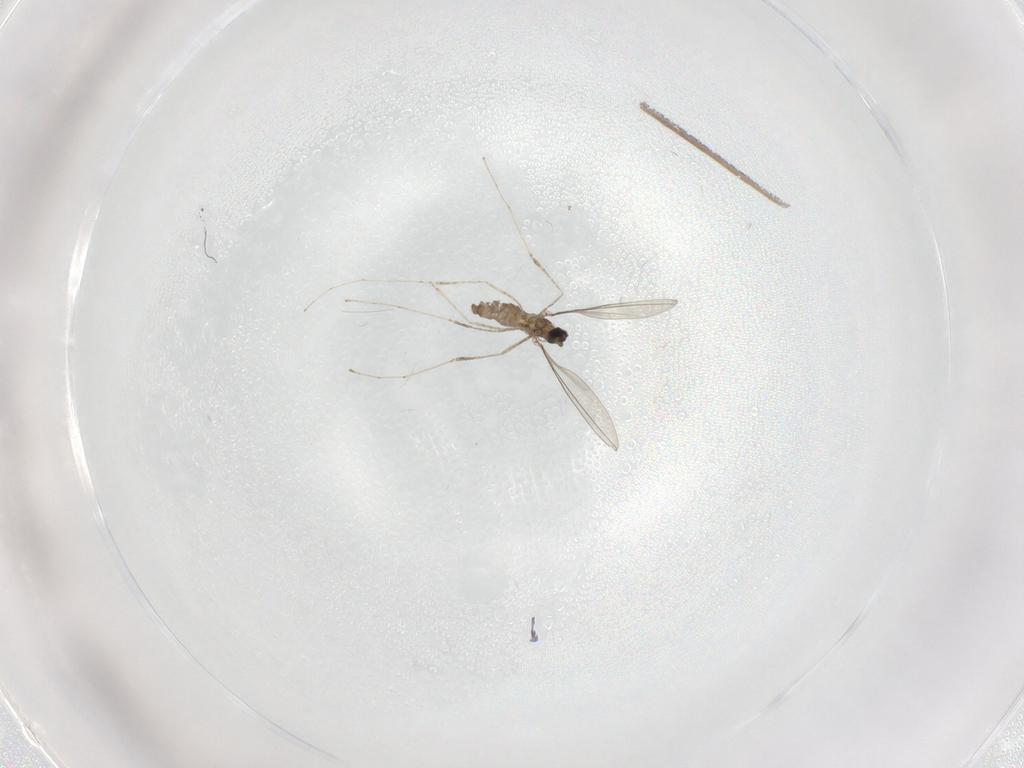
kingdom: Animalia
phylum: Arthropoda
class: Insecta
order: Diptera
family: Cecidomyiidae
